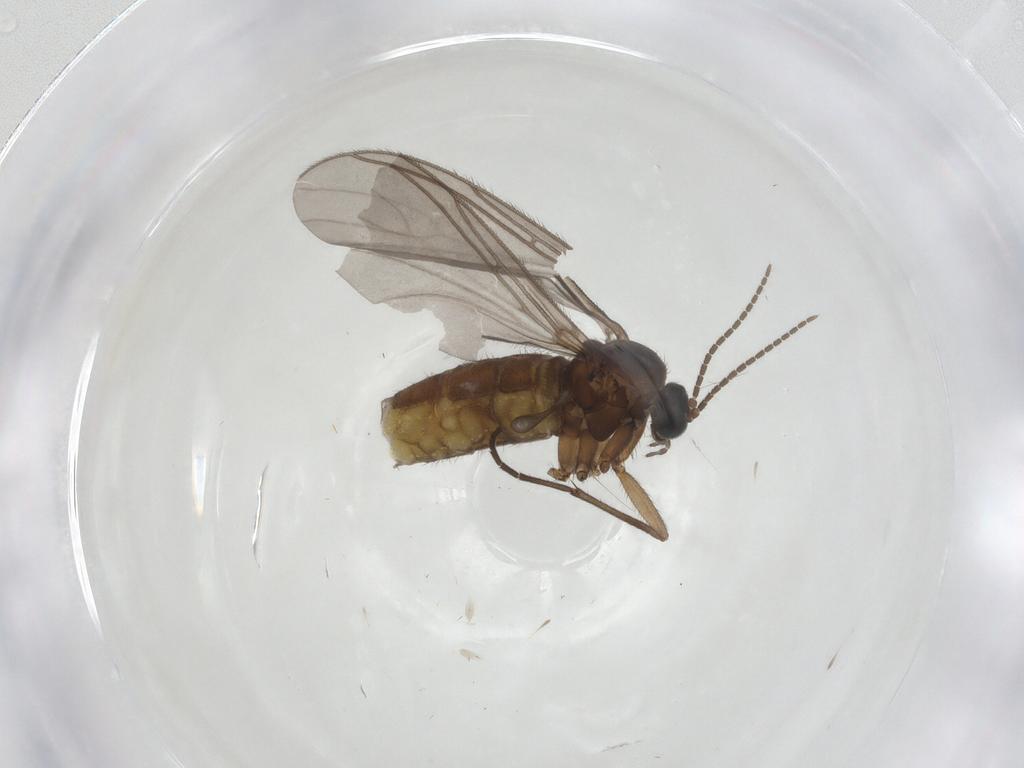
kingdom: Animalia
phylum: Arthropoda
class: Insecta
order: Diptera
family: Sciaridae
